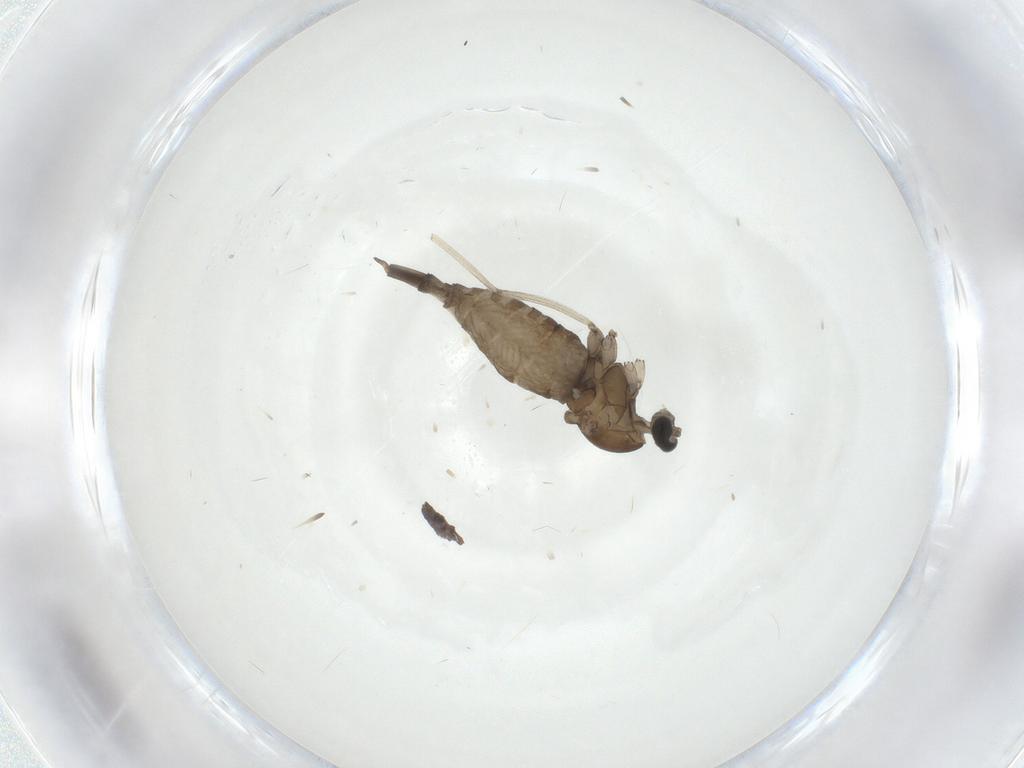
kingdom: Animalia
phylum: Arthropoda
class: Insecta
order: Diptera
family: Cecidomyiidae
